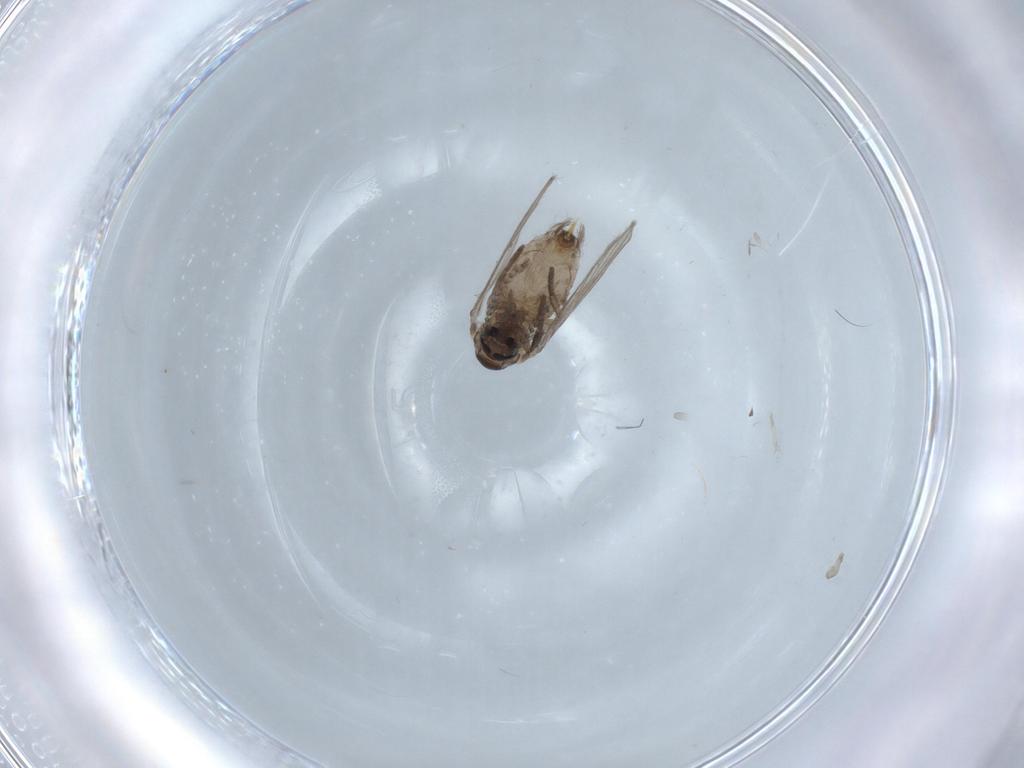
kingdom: Animalia
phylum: Arthropoda
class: Insecta
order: Diptera
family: Psychodidae
